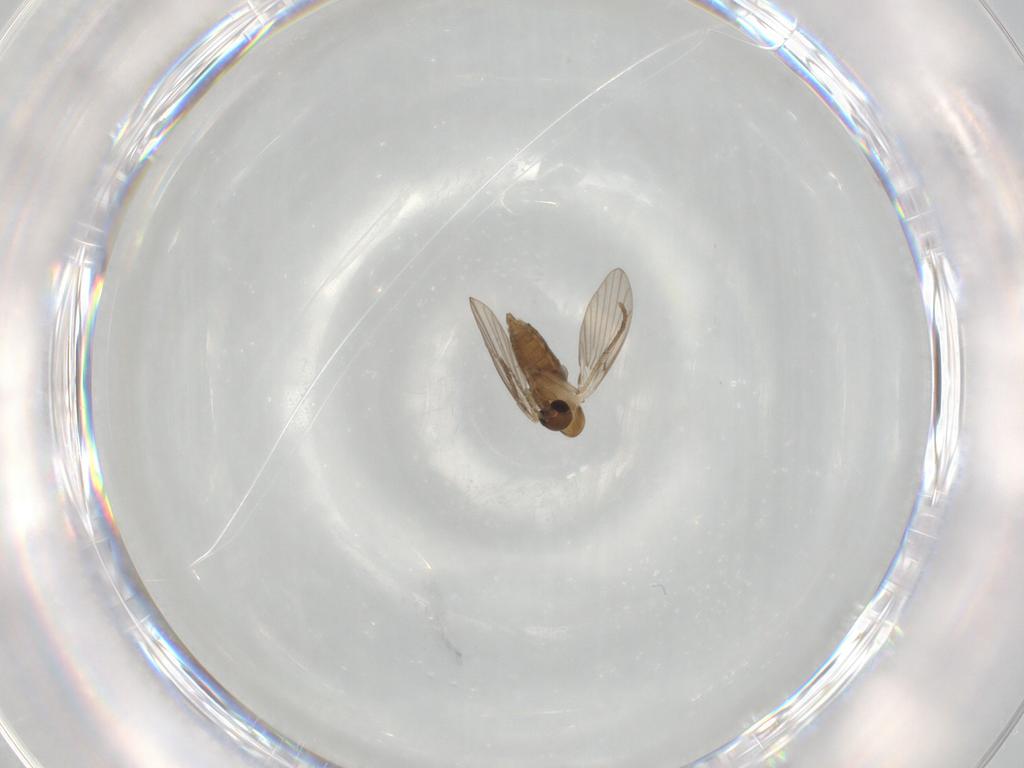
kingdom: Animalia
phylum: Arthropoda
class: Insecta
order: Diptera
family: Psychodidae
